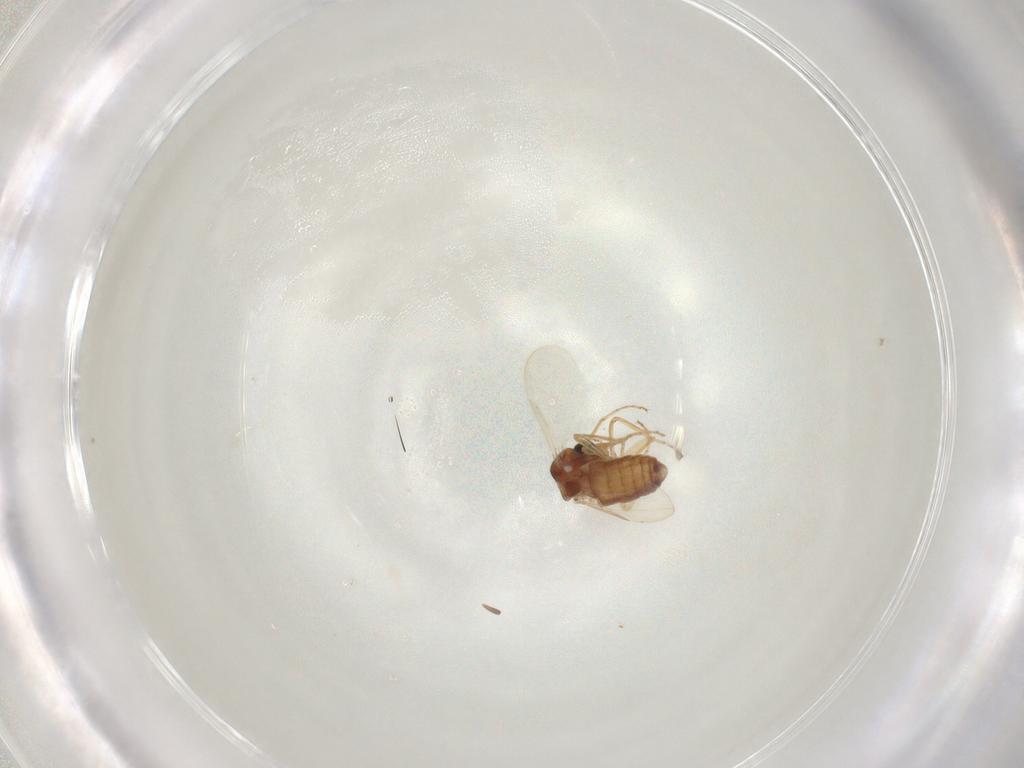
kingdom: Animalia
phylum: Arthropoda
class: Insecta
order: Diptera
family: Ceratopogonidae
